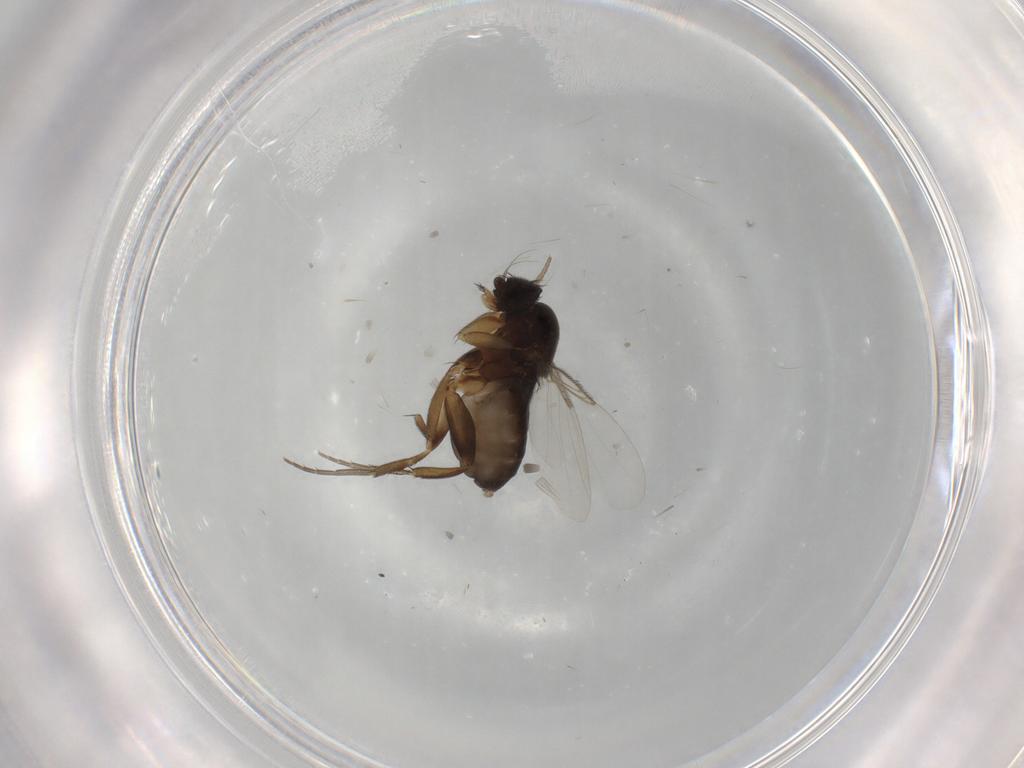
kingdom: Animalia
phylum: Arthropoda
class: Insecta
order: Diptera
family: Phoridae
